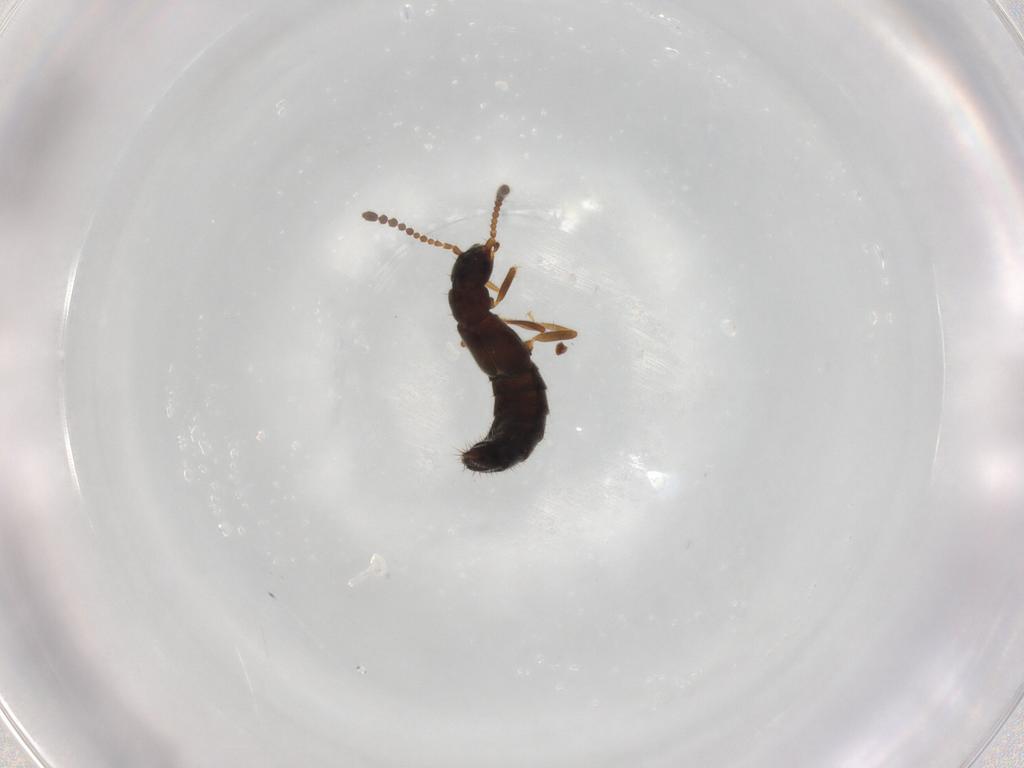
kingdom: Animalia
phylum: Arthropoda
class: Insecta
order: Coleoptera
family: Staphylinidae
